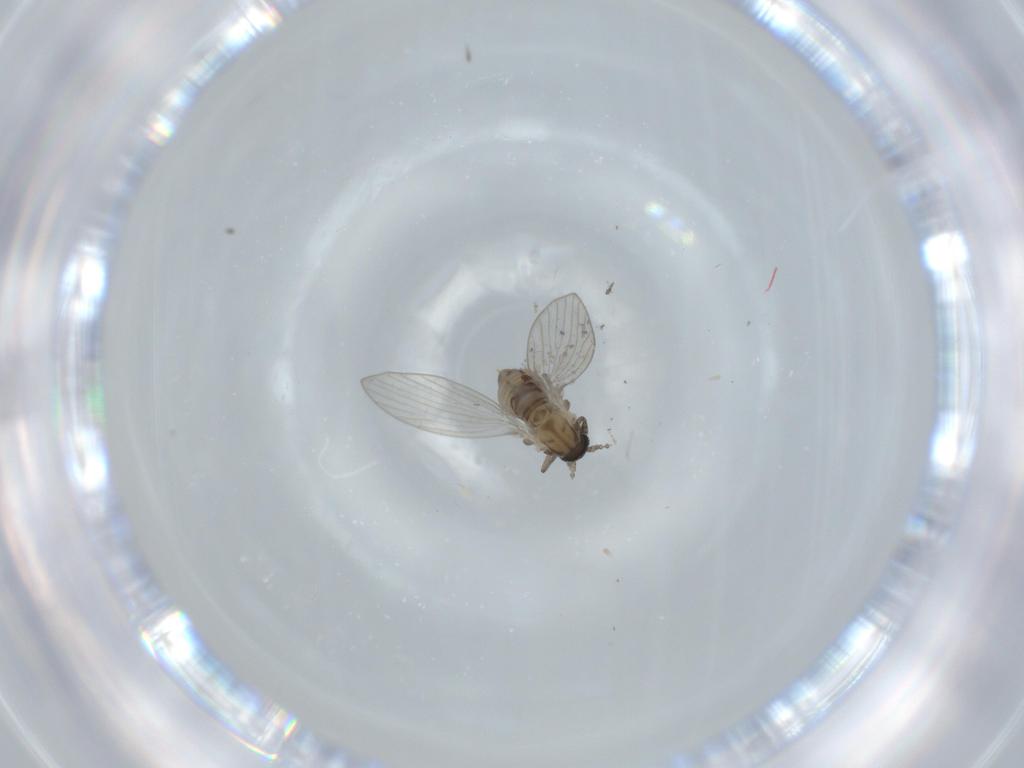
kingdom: Animalia
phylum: Arthropoda
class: Insecta
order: Diptera
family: Psychodidae
